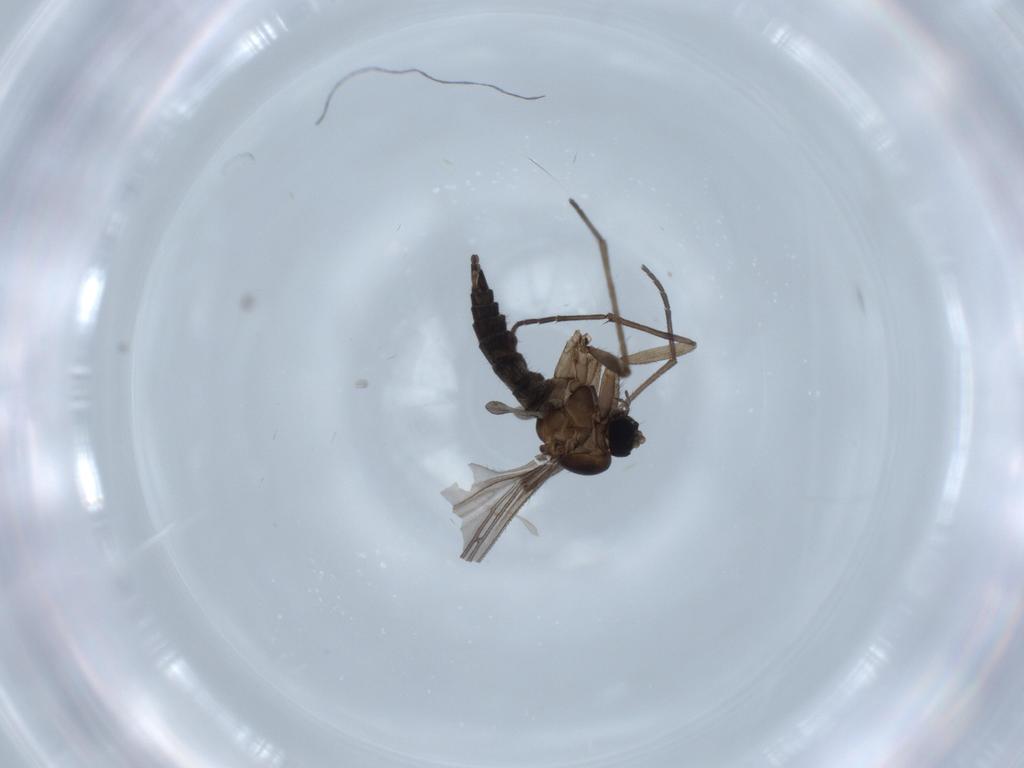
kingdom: Animalia
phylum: Arthropoda
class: Insecta
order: Diptera
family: Sciaridae
